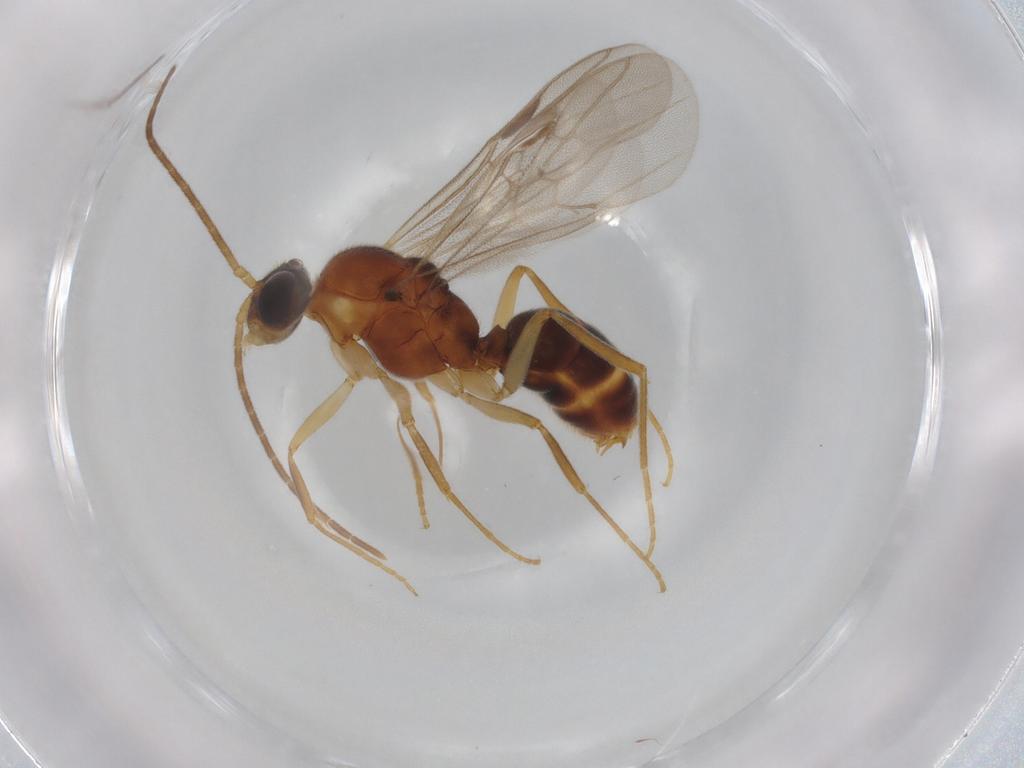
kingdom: Animalia
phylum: Arthropoda
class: Insecta
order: Hymenoptera
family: Formicidae
